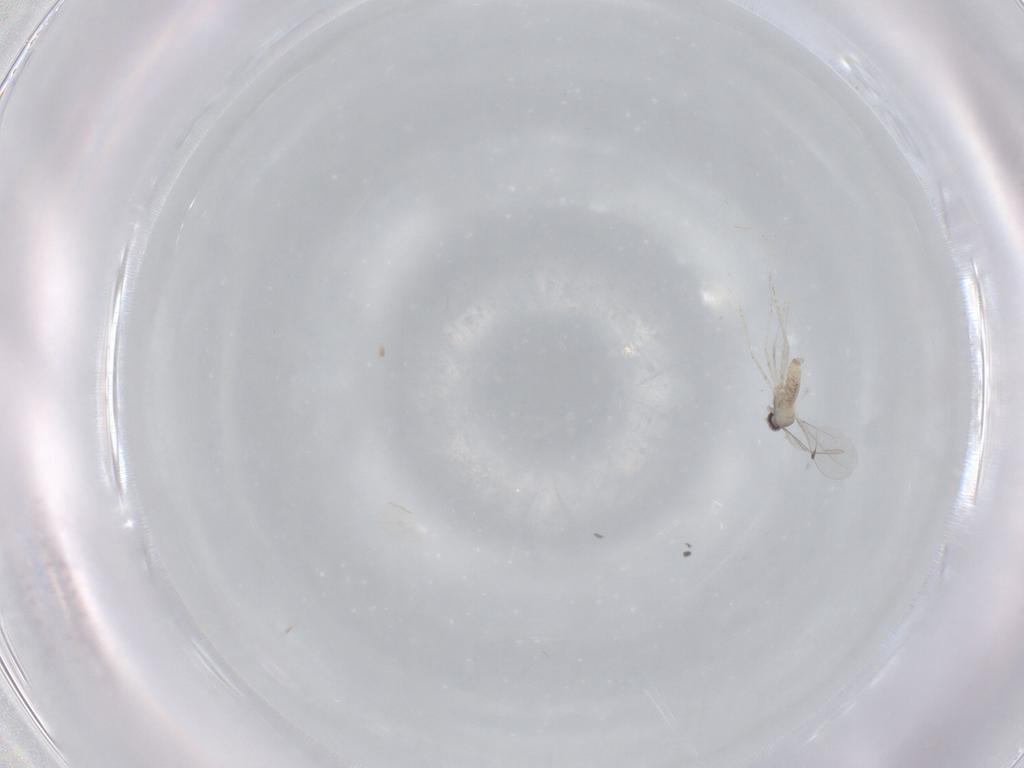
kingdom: Animalia
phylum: Arthropoda
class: Insecta
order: Diptera
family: Cecidomyiidae
